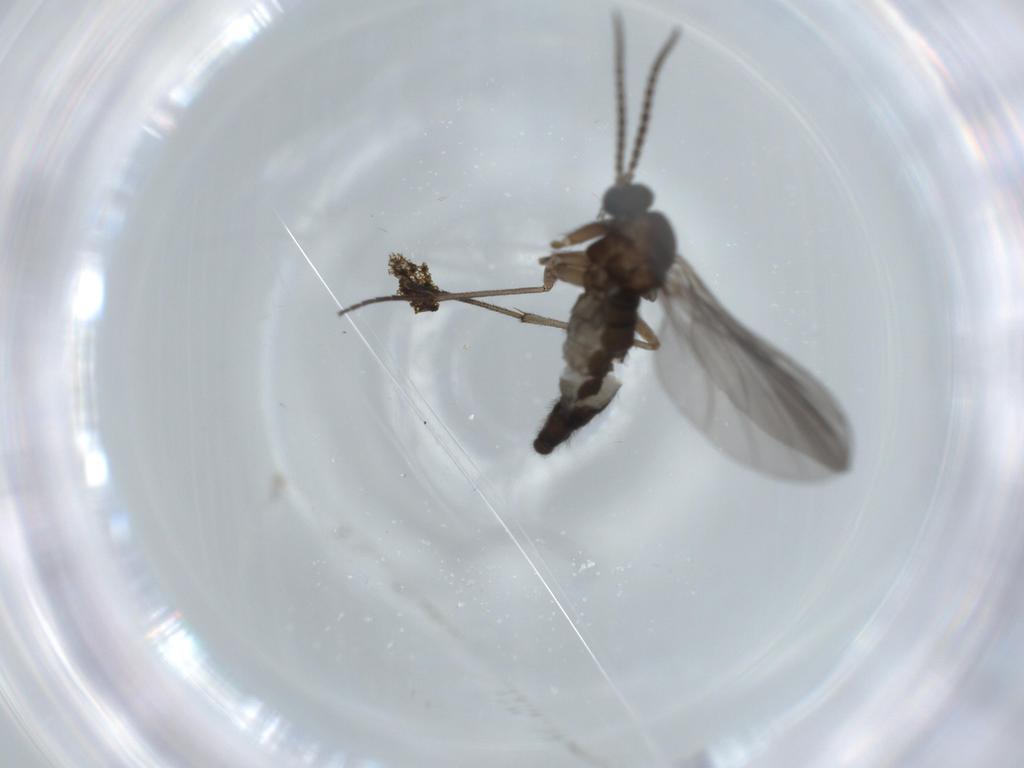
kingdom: Animalia
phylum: Arthropoda
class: Insecta
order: Diptera
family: Sciaridae
